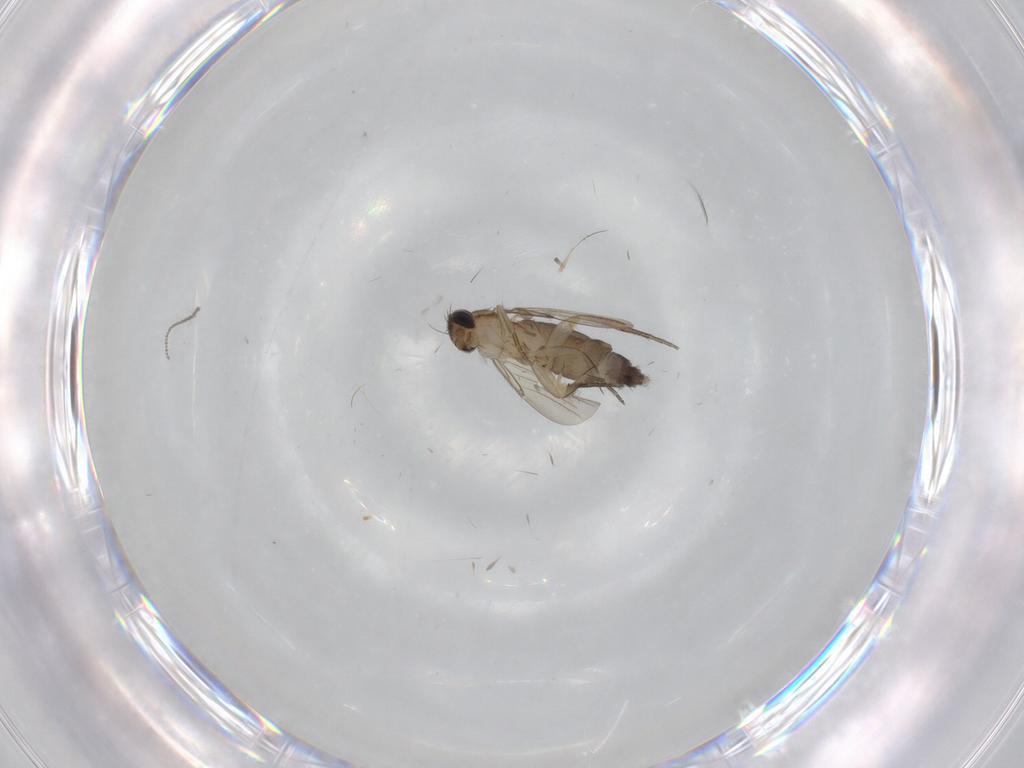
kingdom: Animalia
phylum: Arthropoda
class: Insecta
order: Diptera
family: Phoridae
